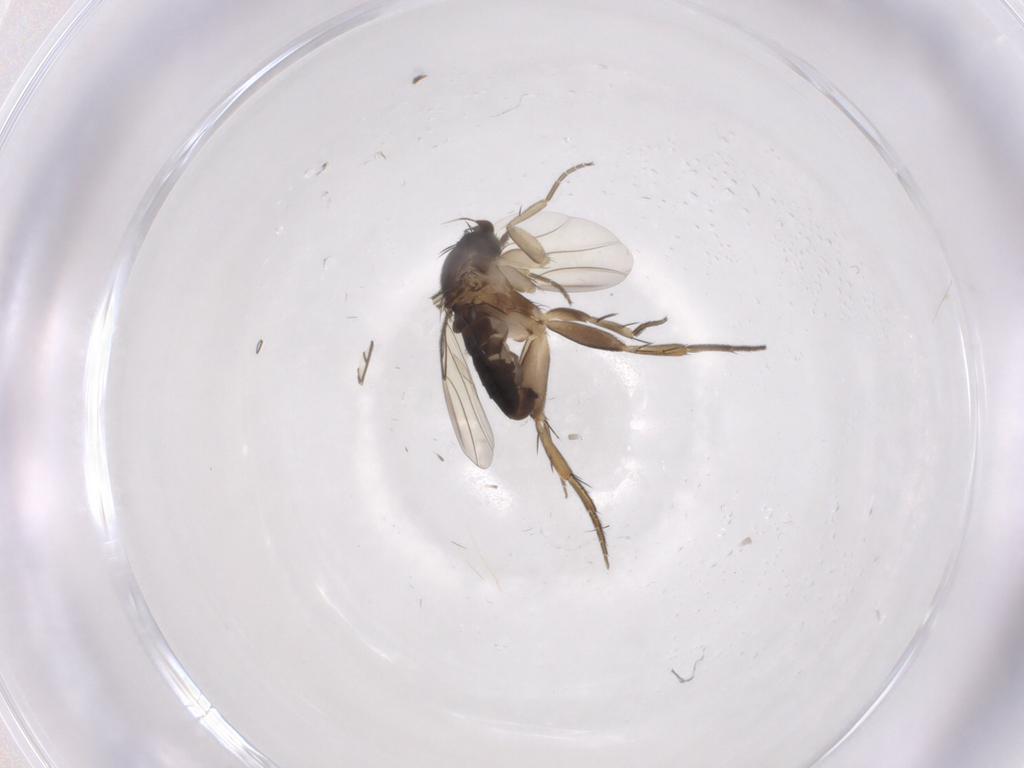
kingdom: Animalia
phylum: Arthropoda
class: Insecta
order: Diptera
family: Phoridae
